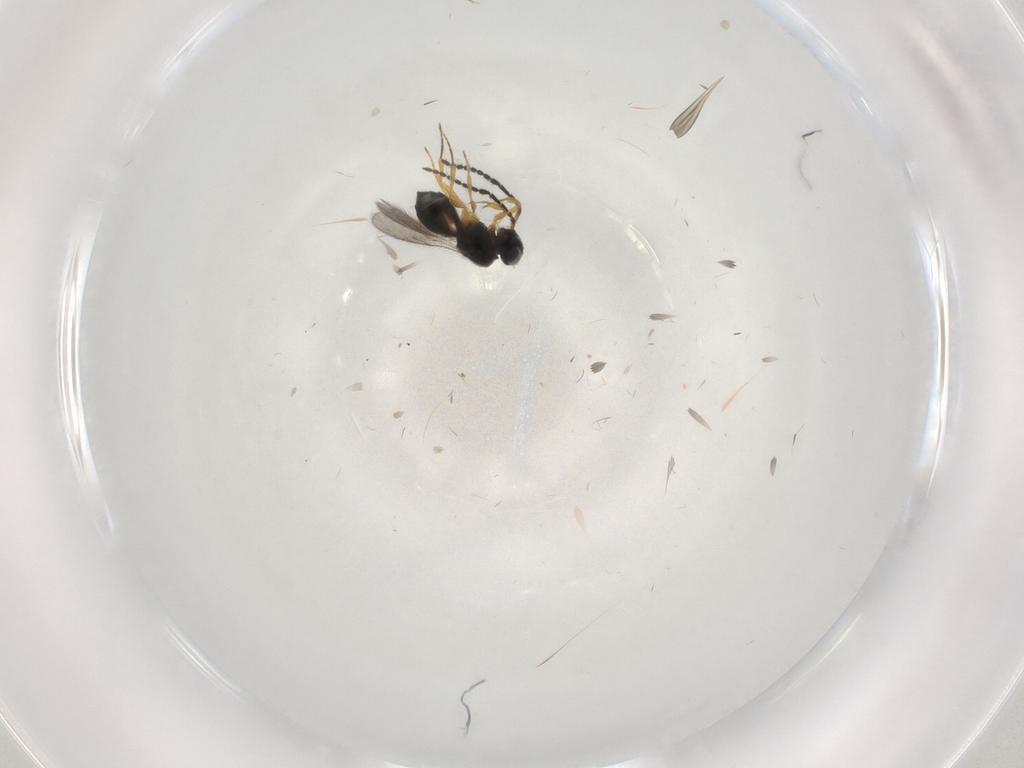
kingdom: Animalia
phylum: Arthropoda
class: Insecta
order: Hymenoptera
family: Scelionidae
